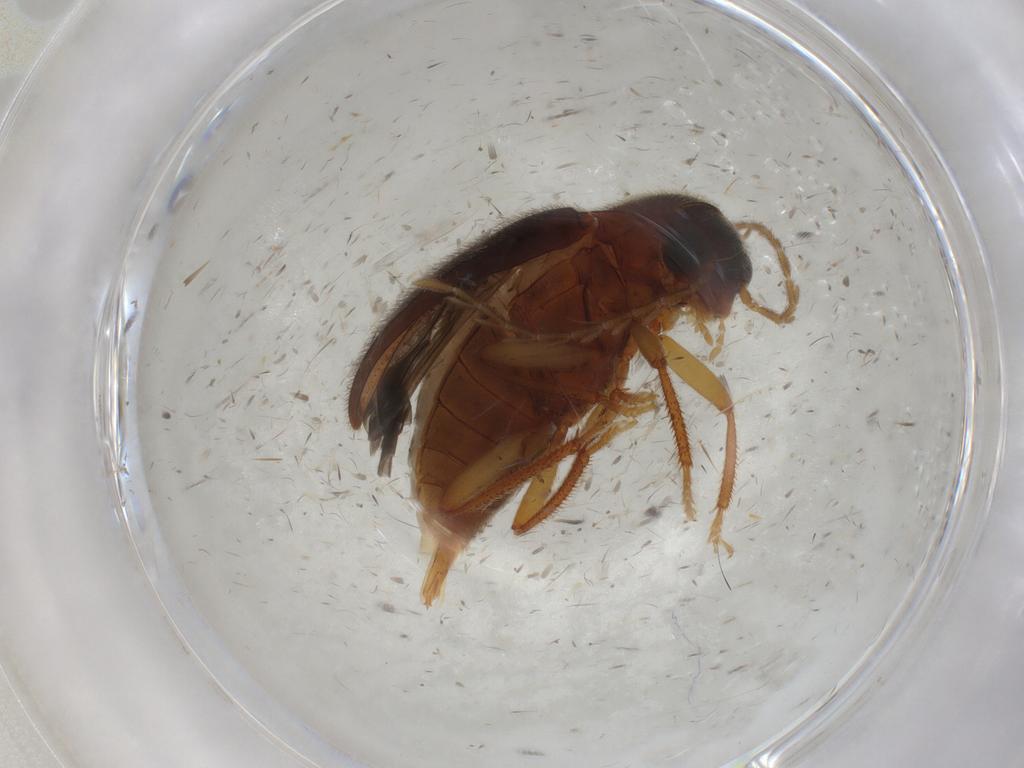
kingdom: Animalia
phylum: Arthropoda
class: Insecta
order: Coleoptera
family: Ptilodactylidae
